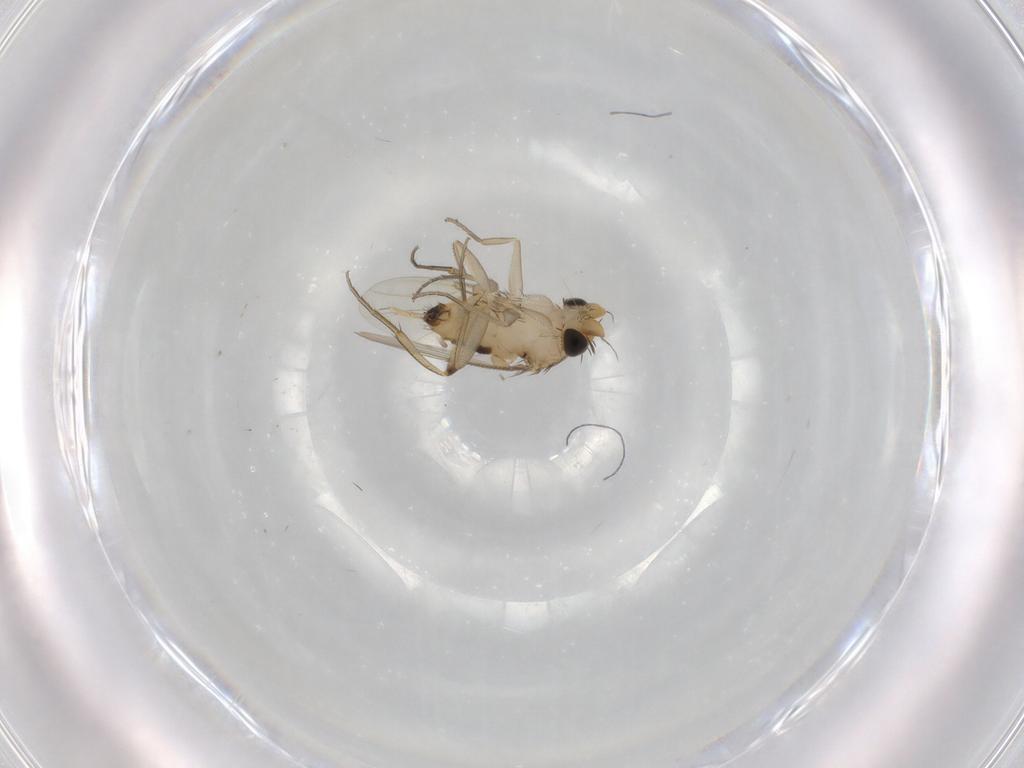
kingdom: Animalia
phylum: Arthropoda
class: Insecta
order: Diptera
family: Phoridae
